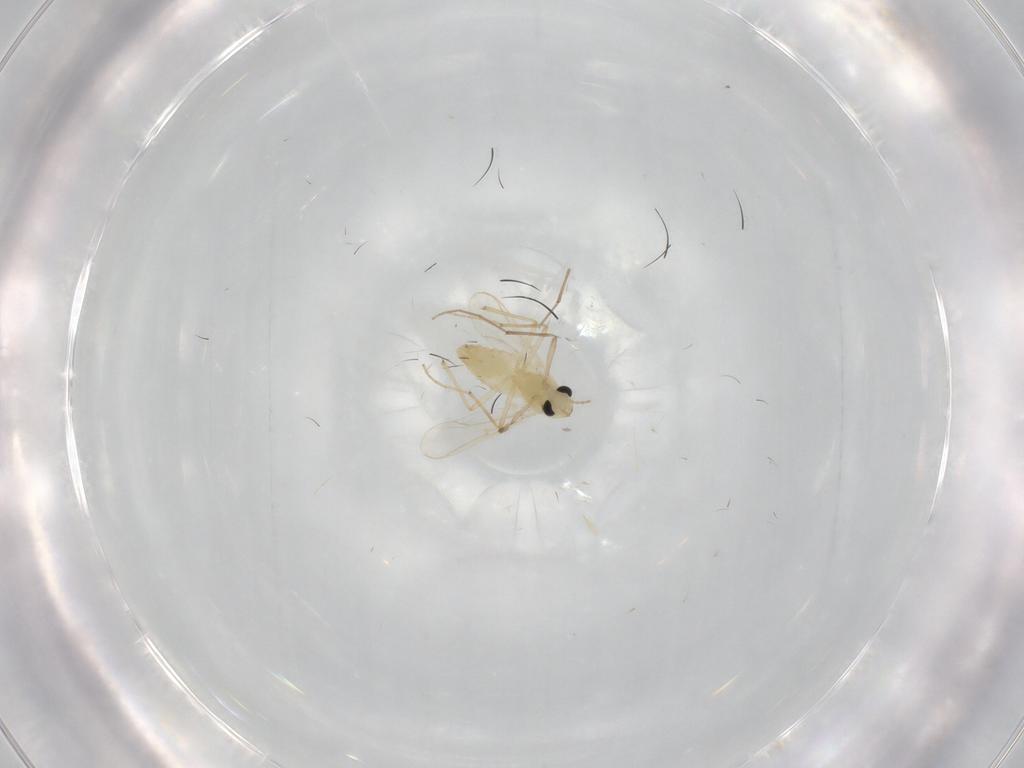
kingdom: Animalia
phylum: Arthropoda
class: Insecta
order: Diptera
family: Chironomidae
